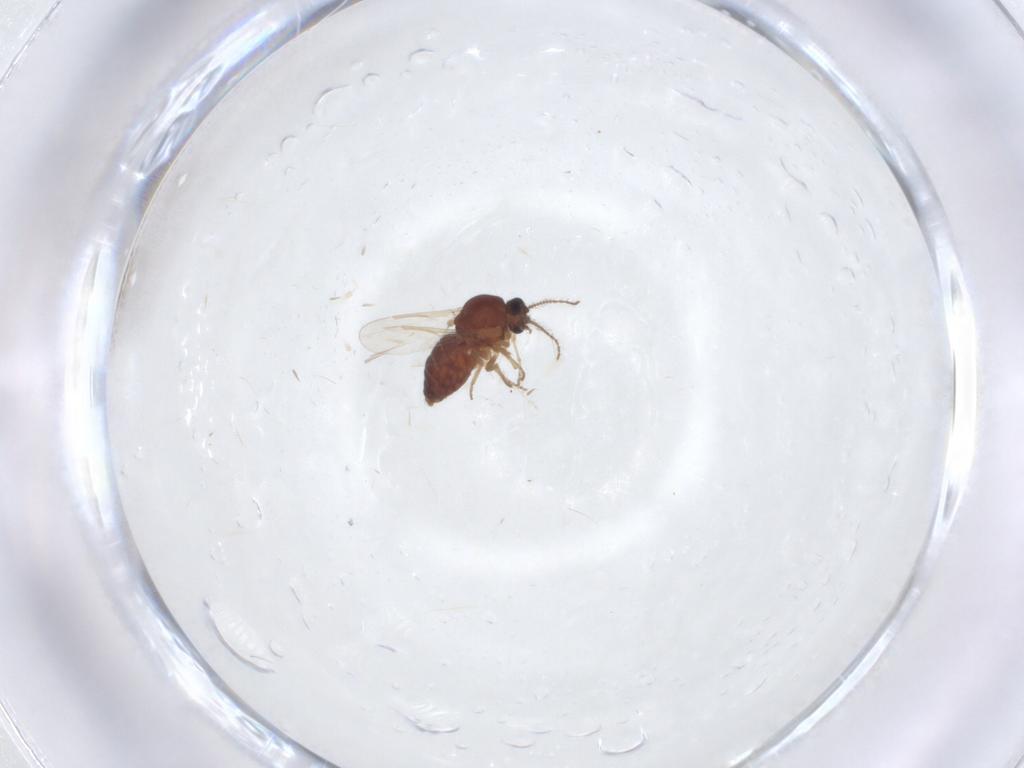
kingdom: Animalia
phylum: Arthropoda
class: Insecta
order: Diptera
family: Ceratopogonidae
